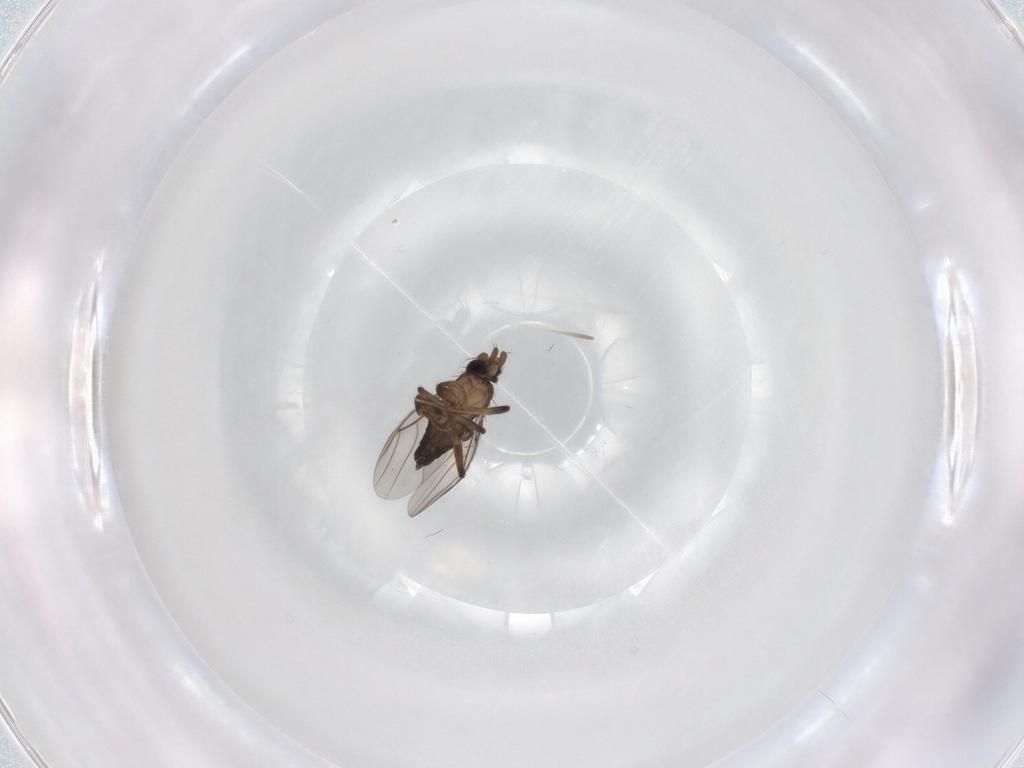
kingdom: Animalia
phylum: Arthropoda
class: Insecta
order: Diptera
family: Phoridae
